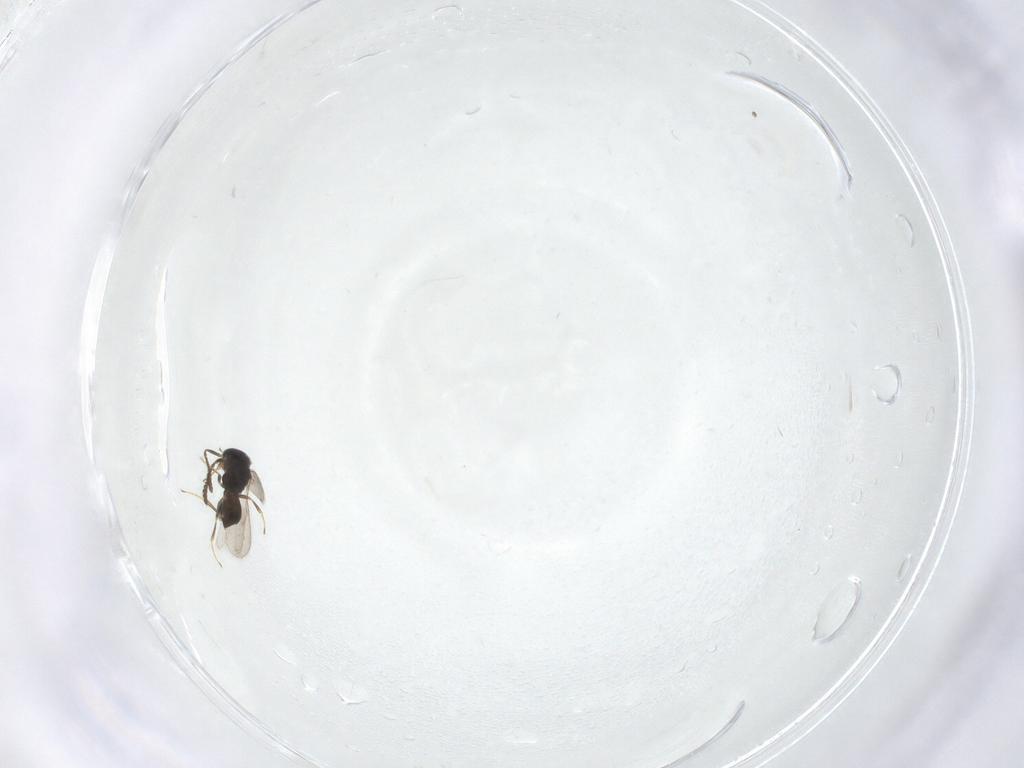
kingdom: Animalia
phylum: Arthropoda
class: Insecta
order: Hymenoptera
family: Scelionidae
